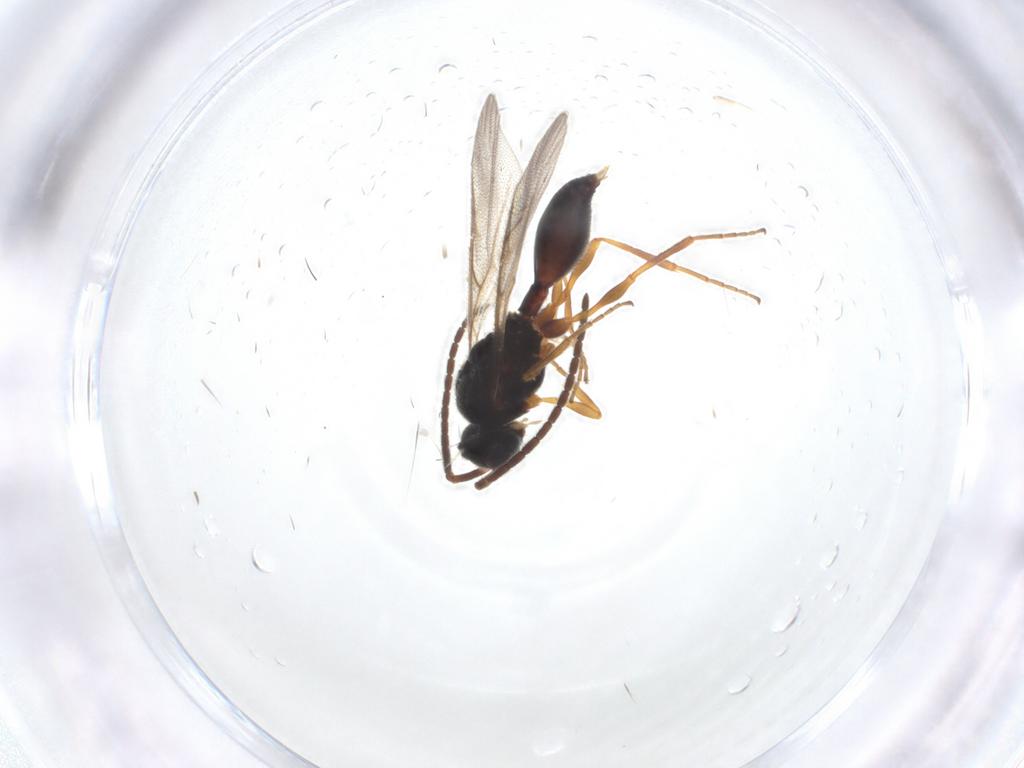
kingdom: Animalia
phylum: Arthropoda
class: Insecta
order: Hymenoptera
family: Diapriidae
